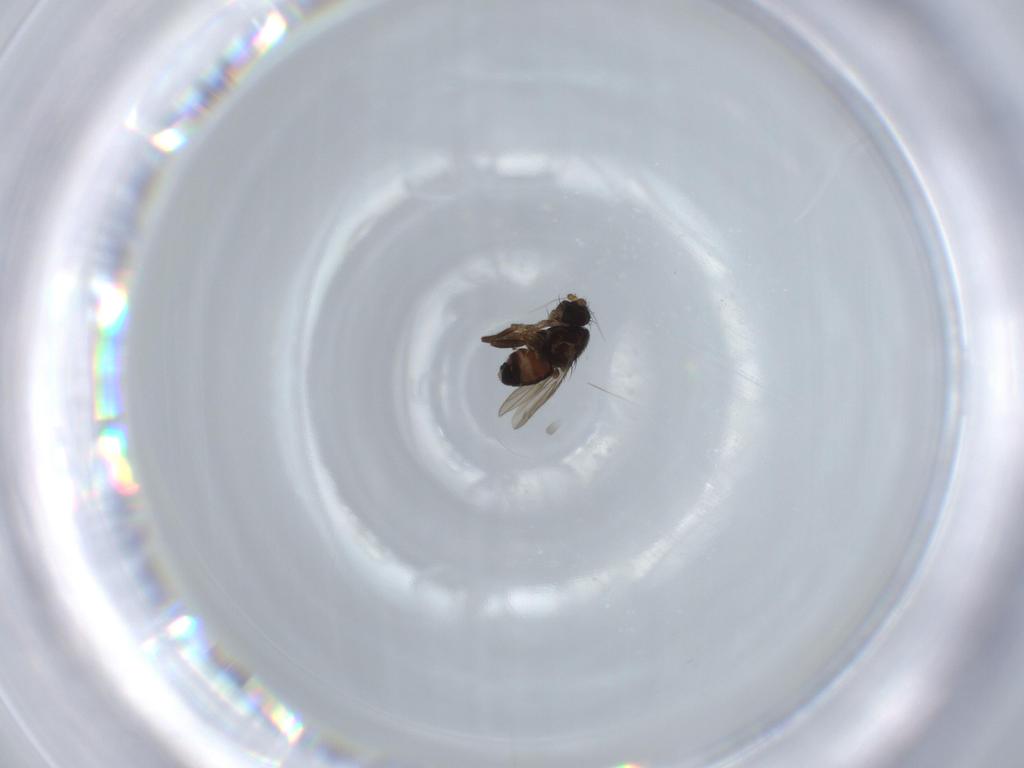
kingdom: Animalia
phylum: Arthropoda
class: Insecta
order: Diptera
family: Sphaeroceridae
